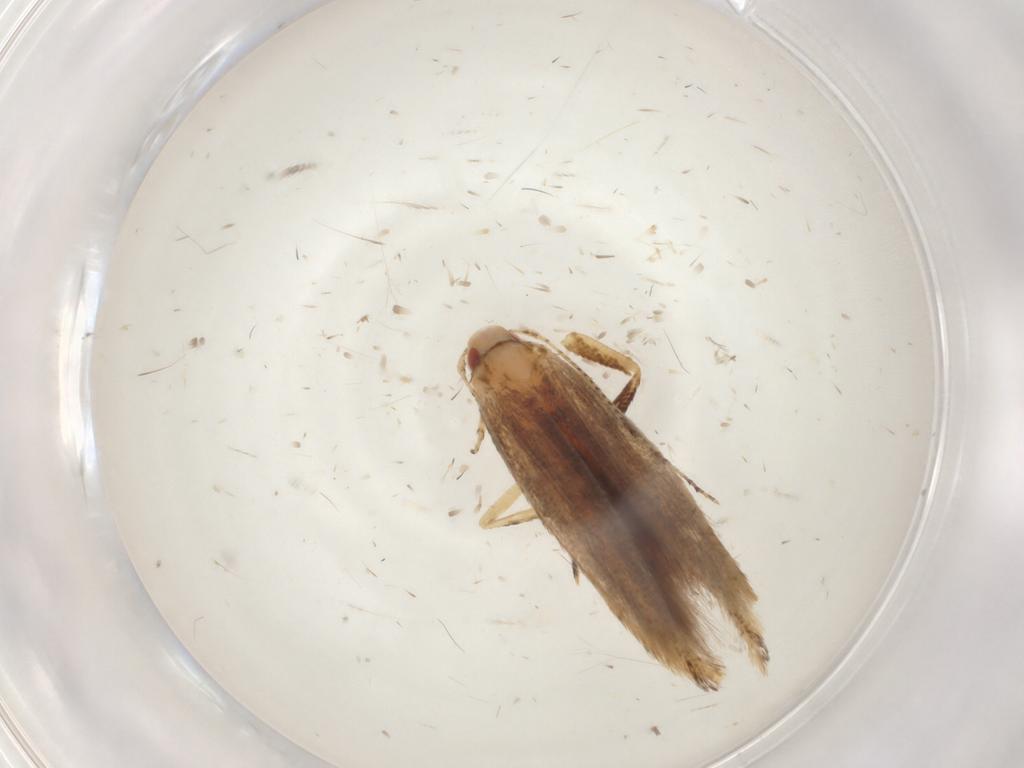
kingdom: Animalia
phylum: Arthropoda
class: Insecta
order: Lepidoptera
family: Cosmopterigidae
